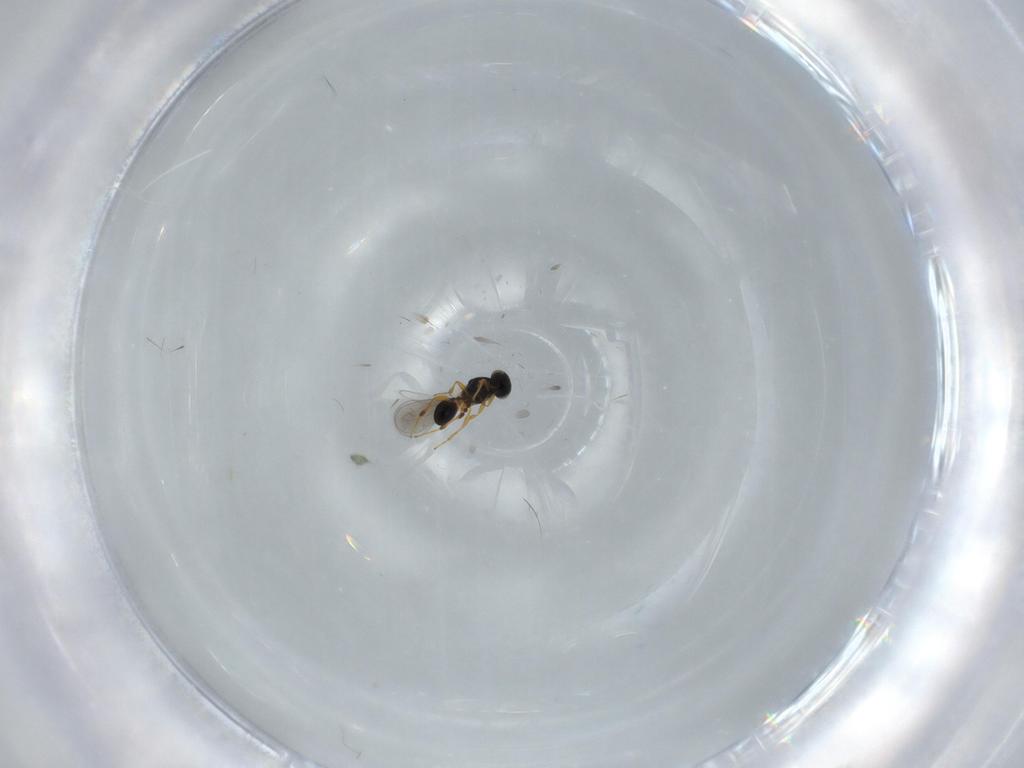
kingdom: Animalia
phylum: Arthropoda
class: Insecta
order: Hymenoptera
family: Platygastridae
